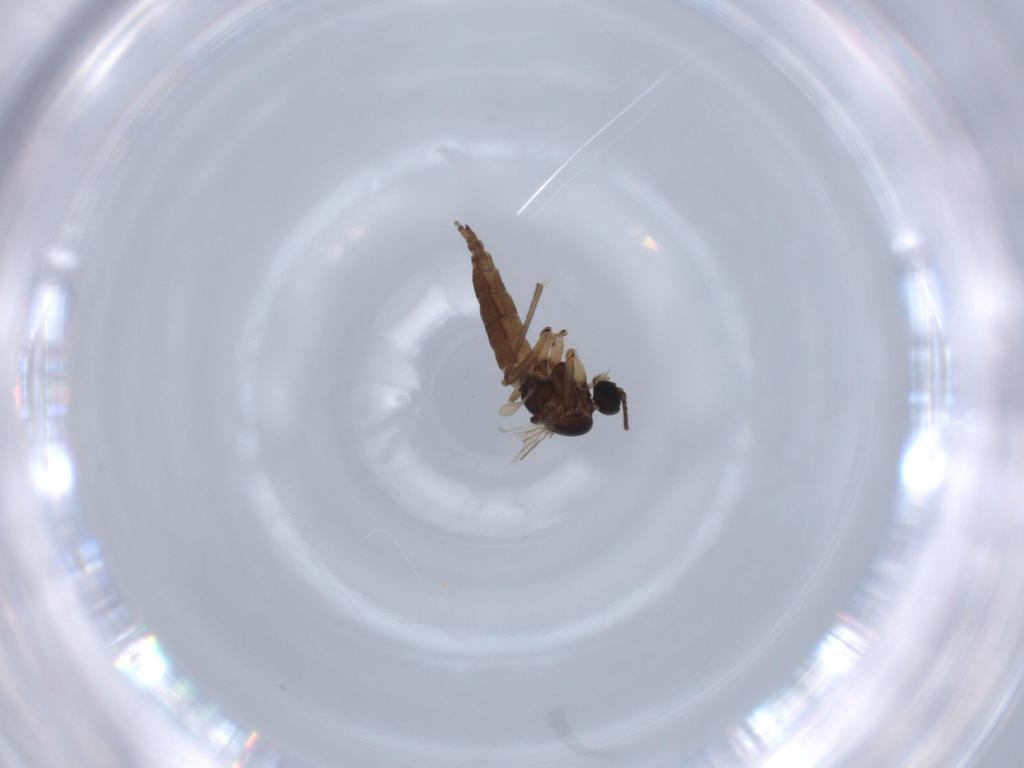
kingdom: Animalia
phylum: Arthropoda
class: Insecta
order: Diptera
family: Sciaridae
